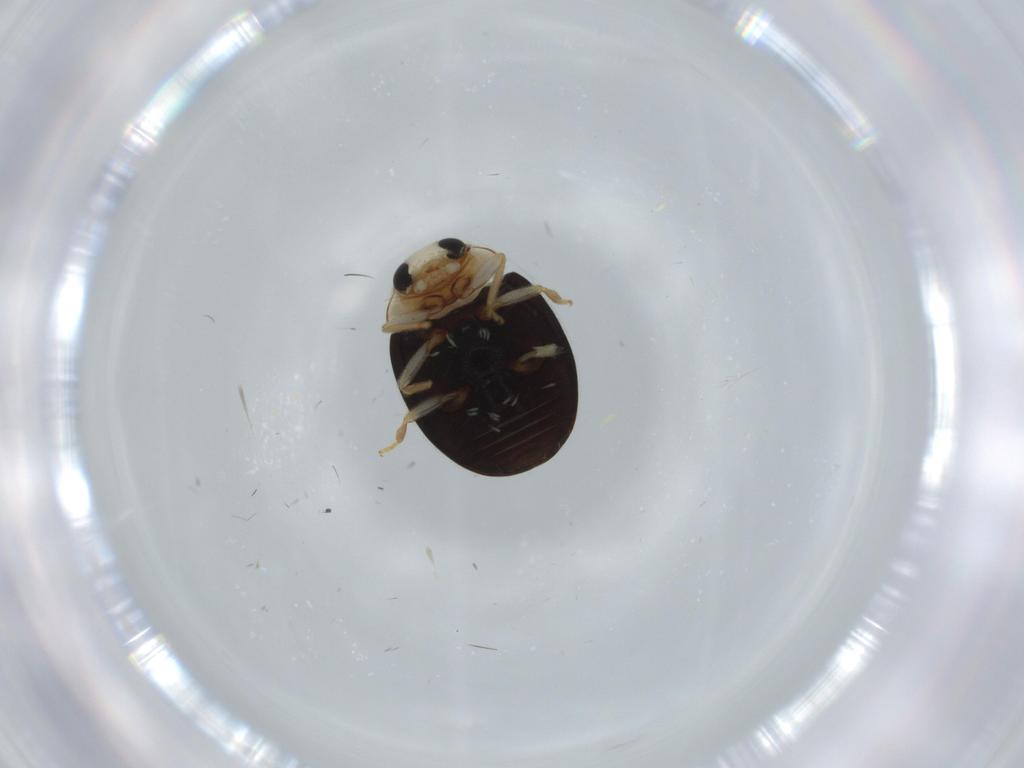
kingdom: Animalia
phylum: Arthropoda
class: Insecta
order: Coleoptera
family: Coccinellidae
